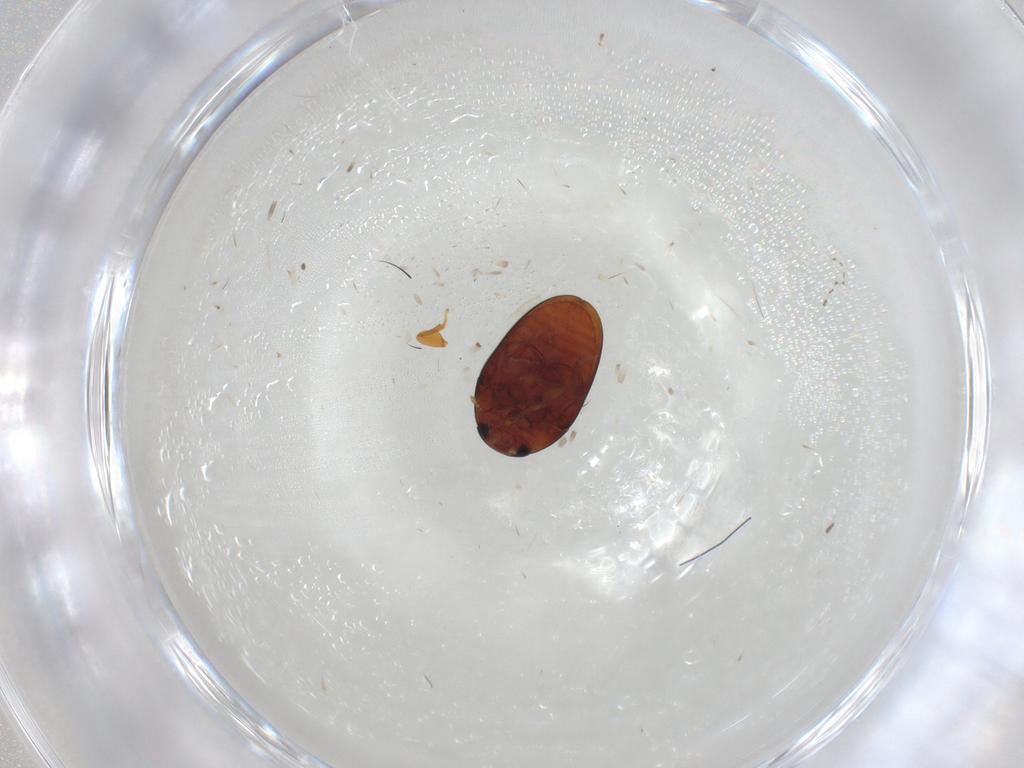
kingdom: Animalia
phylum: Arthropoda
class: Insecta
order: Coleoptera
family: Phalacridae
